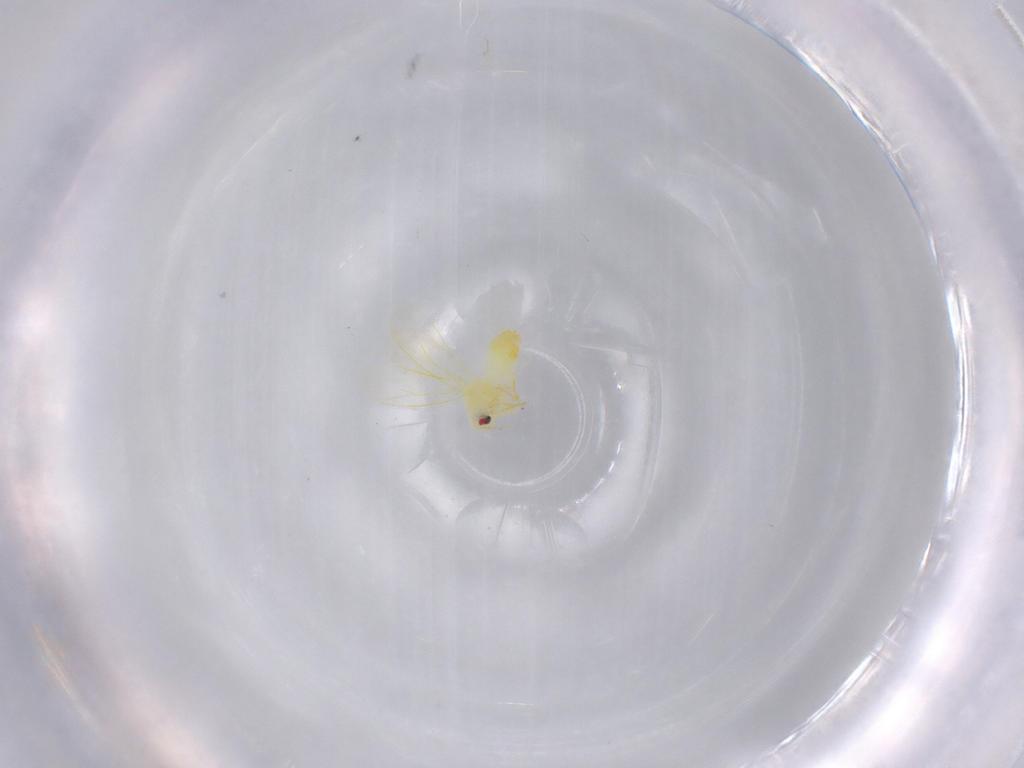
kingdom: Animalia
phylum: Arthropoda
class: Insecta
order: Hemiptera
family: Aleyrodidae
